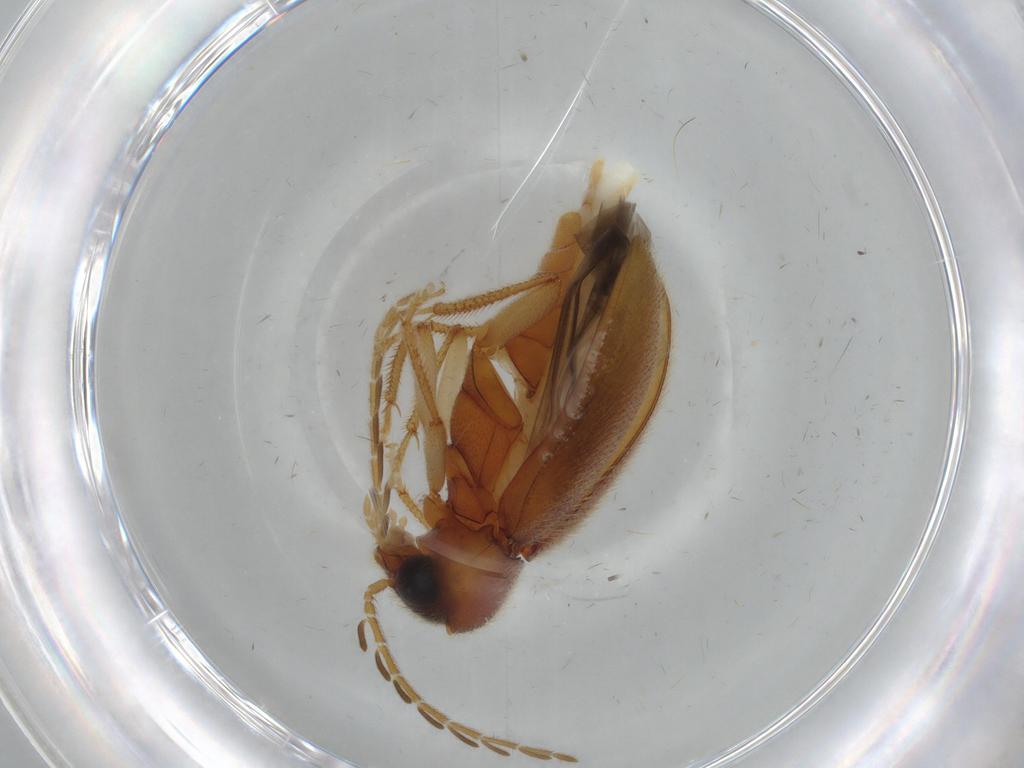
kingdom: Animalia
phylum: Arthropoda
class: Insecta
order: Coleoptera
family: Ptilodactylidae
